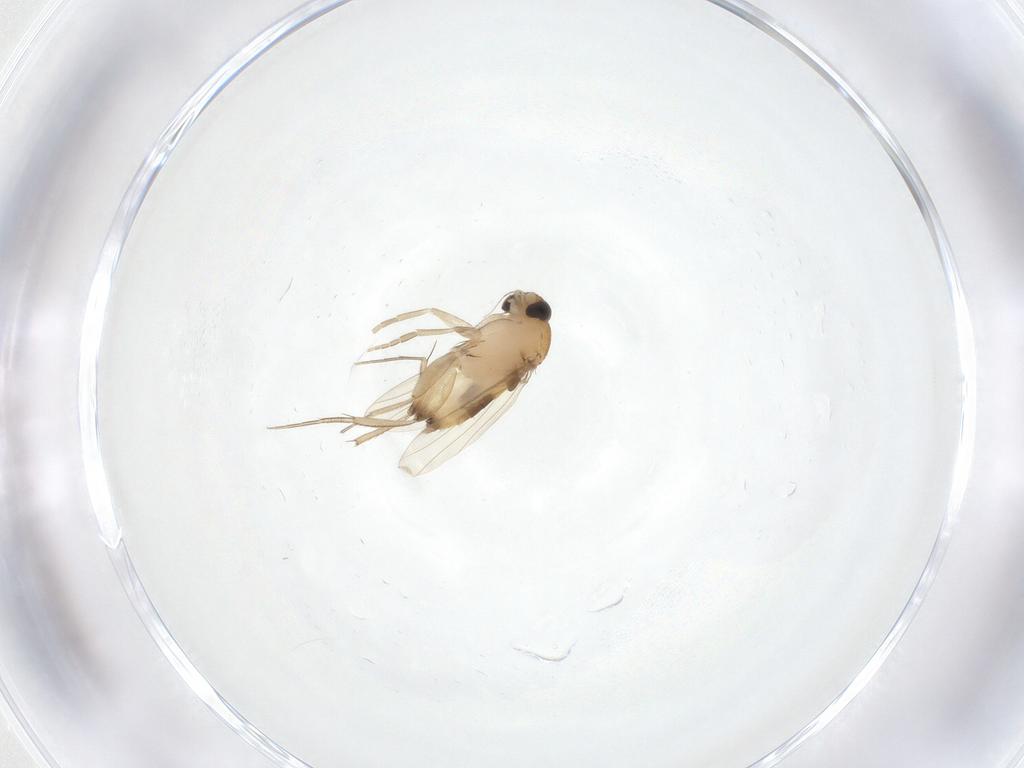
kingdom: Animalia
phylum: Arthropoda
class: Insecta
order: Diptera
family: Phoridae
